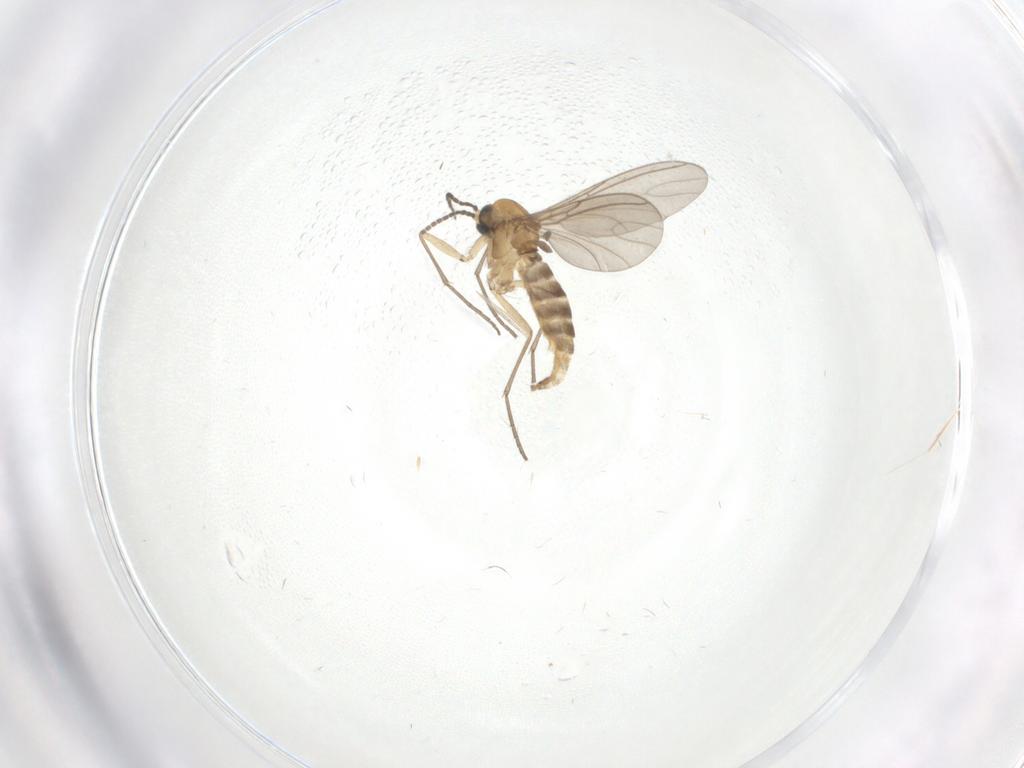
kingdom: Animalia
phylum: Arthropoda
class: Insecta
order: Diptera
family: Sciaridae
